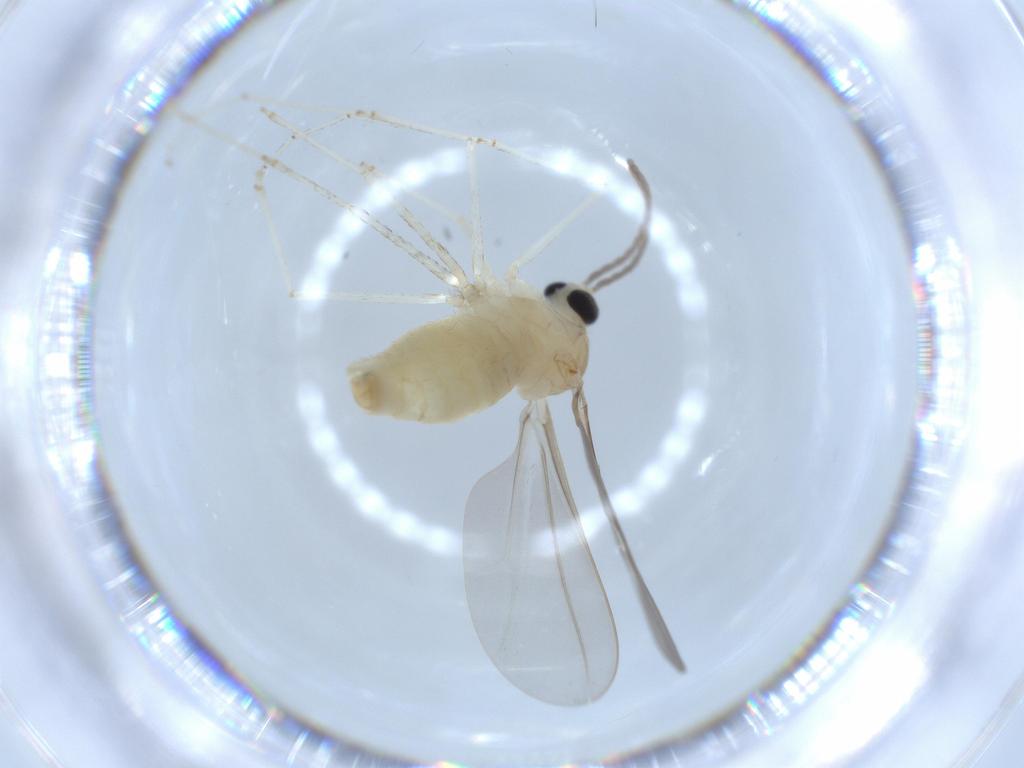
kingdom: Animalia
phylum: Arthropoda
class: Insecta
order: Diptera
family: Cecidomyiidae
